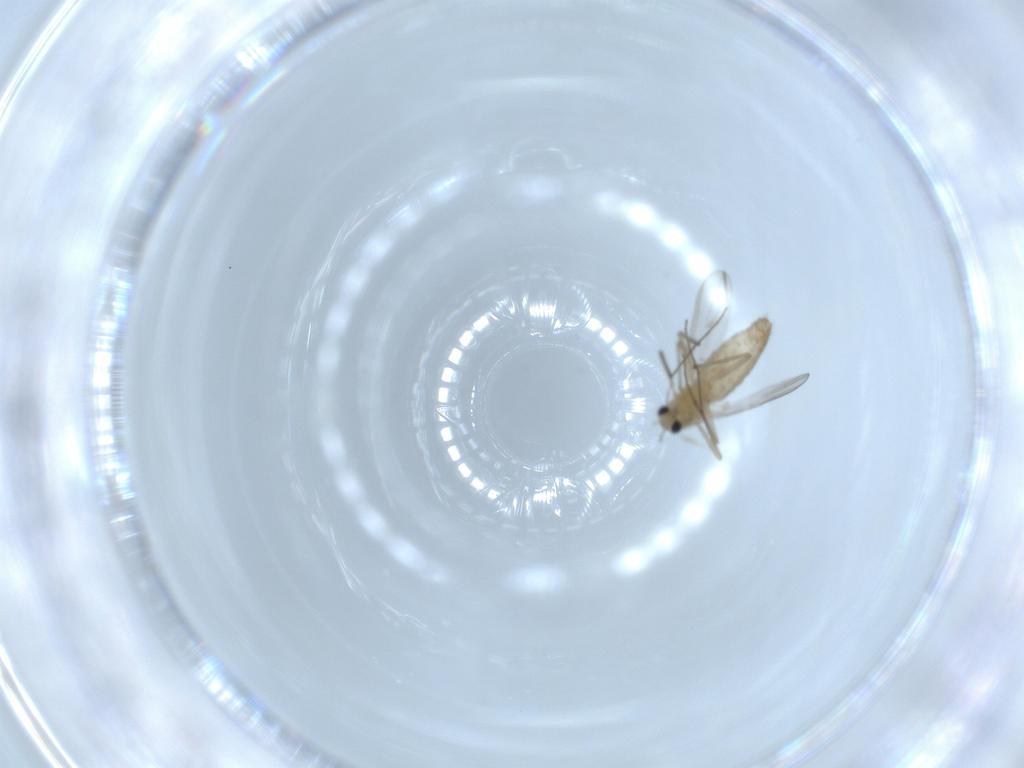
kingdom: Animalia
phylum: Arthropoda
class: Insecta
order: Diptera
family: Chironomidae
